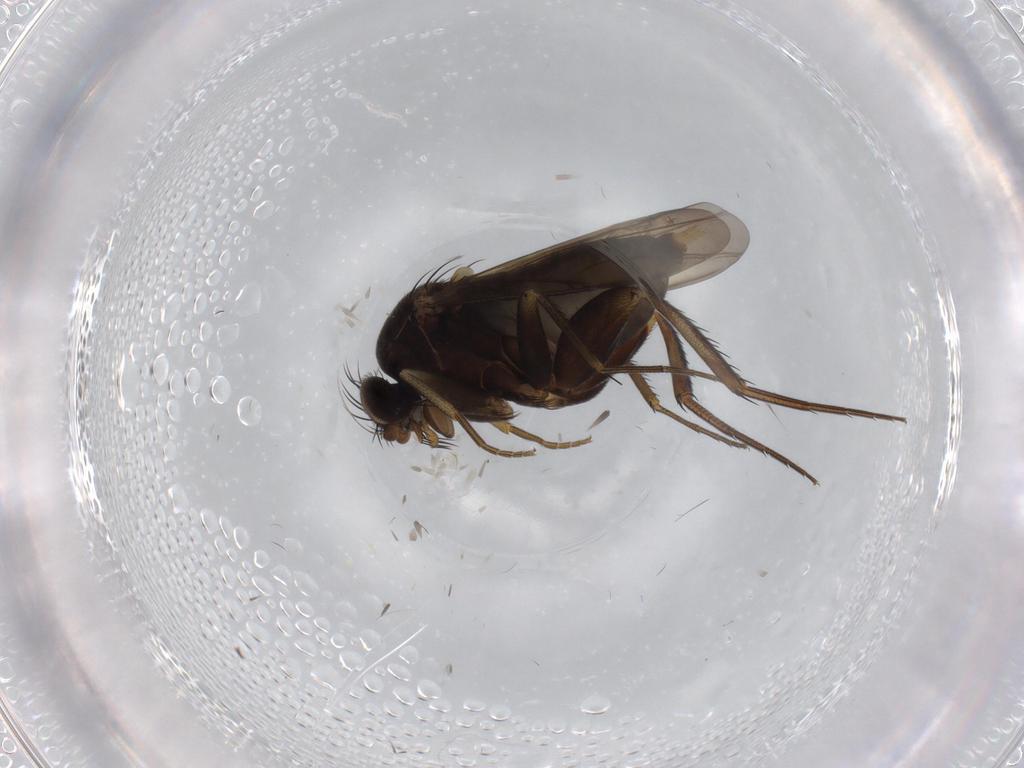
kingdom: Animalia
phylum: Arthropoda
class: Insecta
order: Diptera
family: Phoridae
